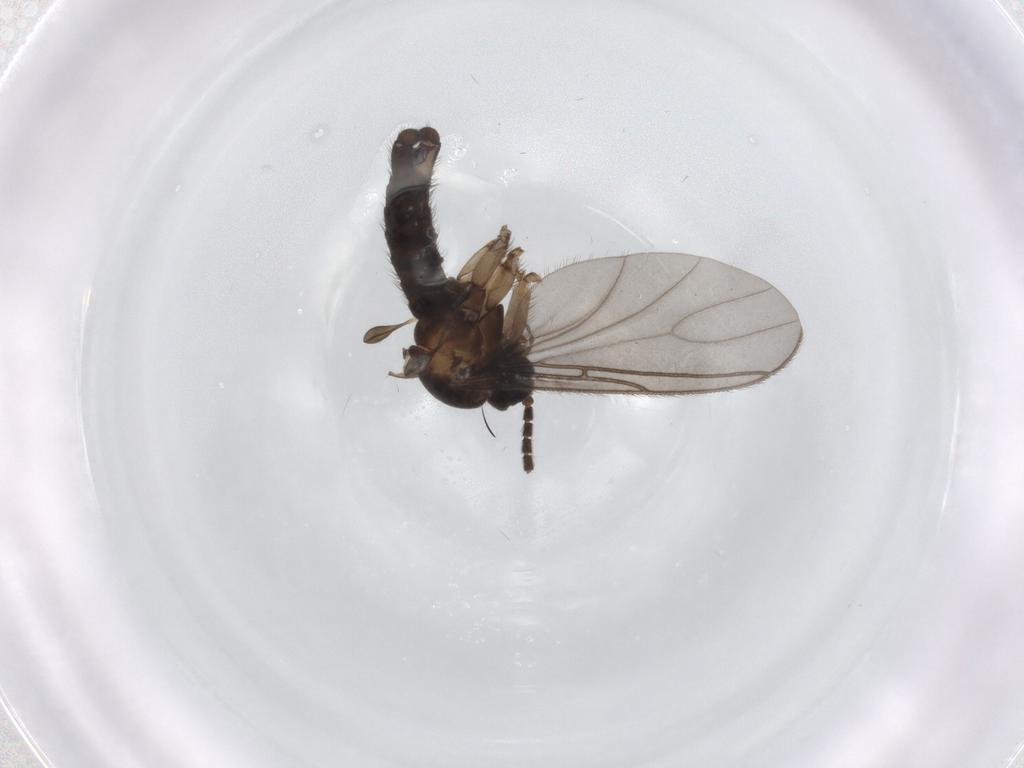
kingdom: Animalia
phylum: Arthropoda
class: Insecta
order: Diptera
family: Sciaridae
